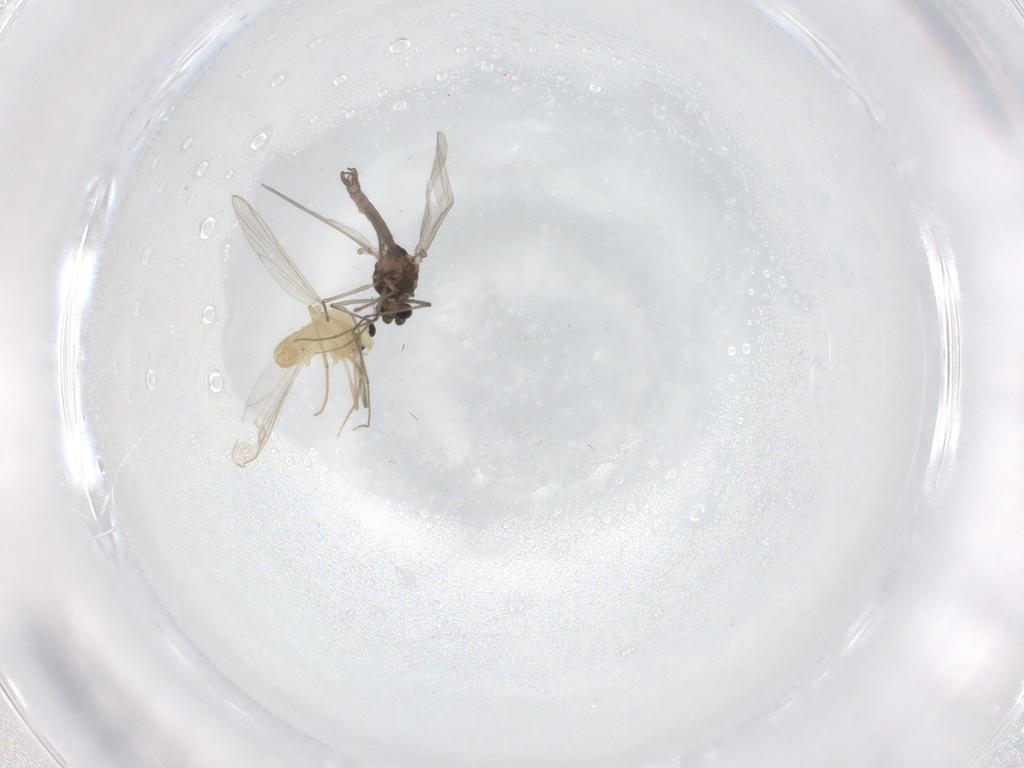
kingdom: Animalia
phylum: Arthropoda
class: Insecta
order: Diptera
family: Chironomidae
